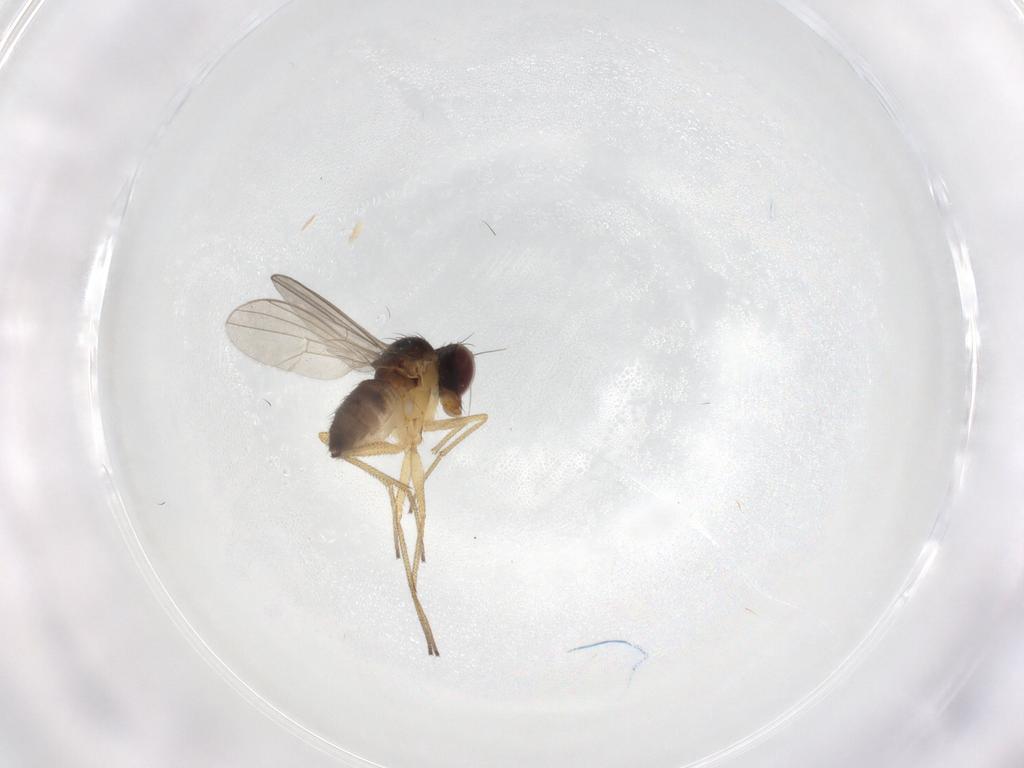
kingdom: Animalia
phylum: Arthropoda
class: Insecta
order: Diptera
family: Dolichopodidae
